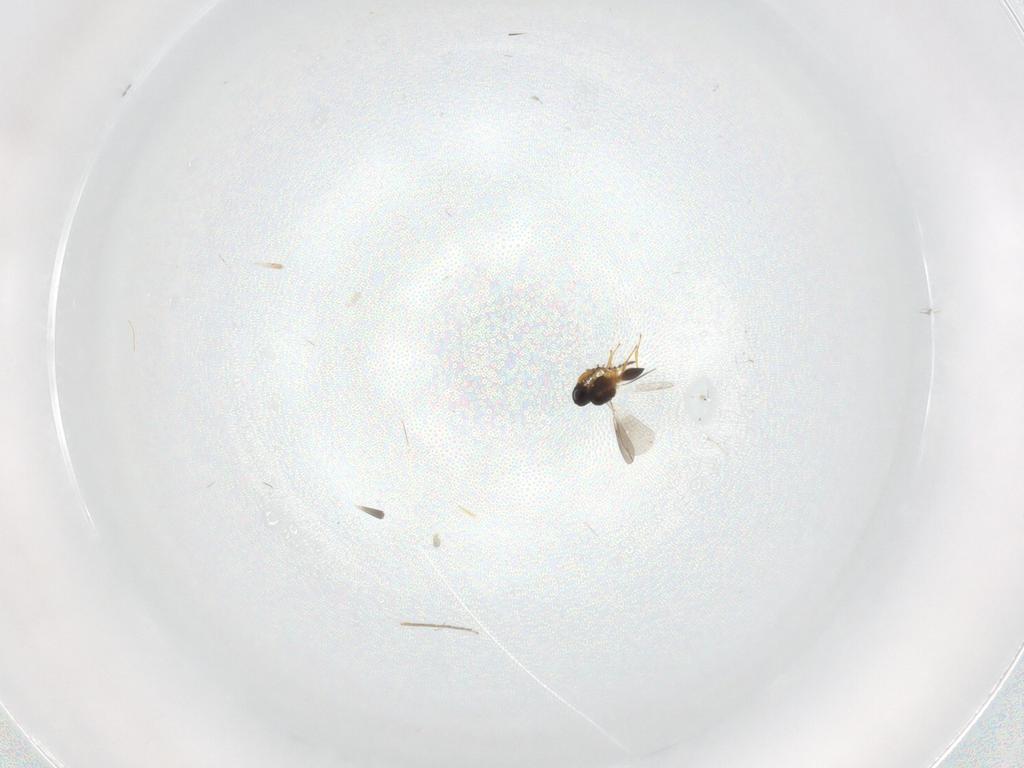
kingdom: Animalia
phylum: Arthropoda
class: Insecta
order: Hymenoptera
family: Platygastridae
